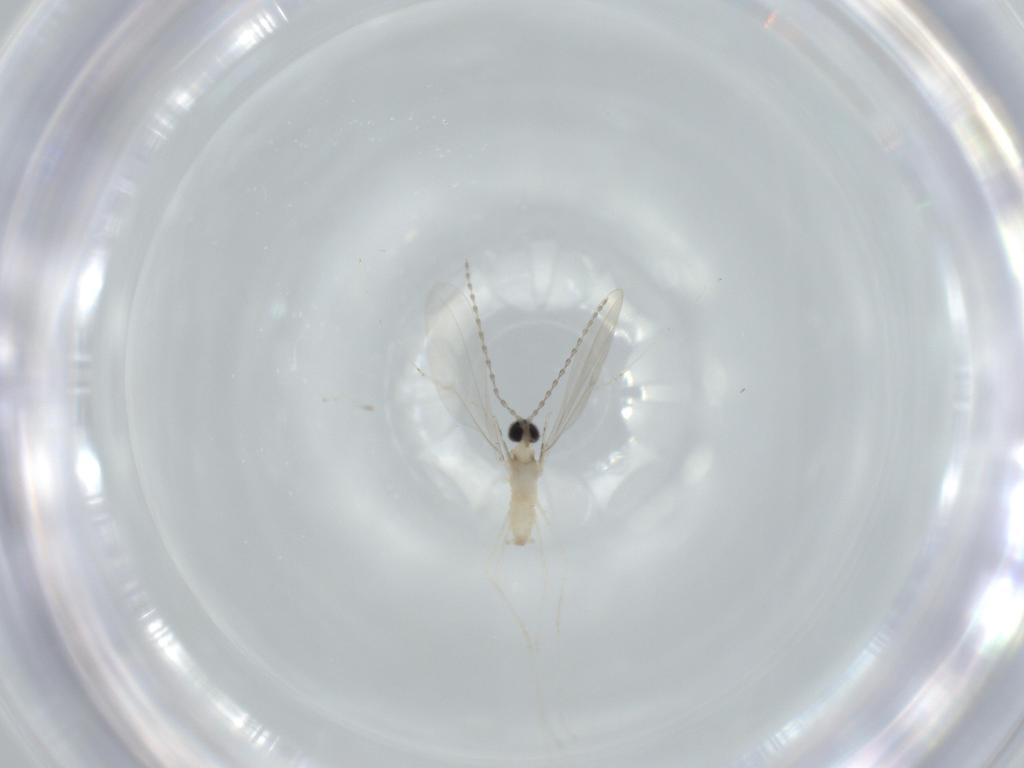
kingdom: Animalia
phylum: Arthropoda
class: Insecta
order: Diptera
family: Cecidomyiidae
